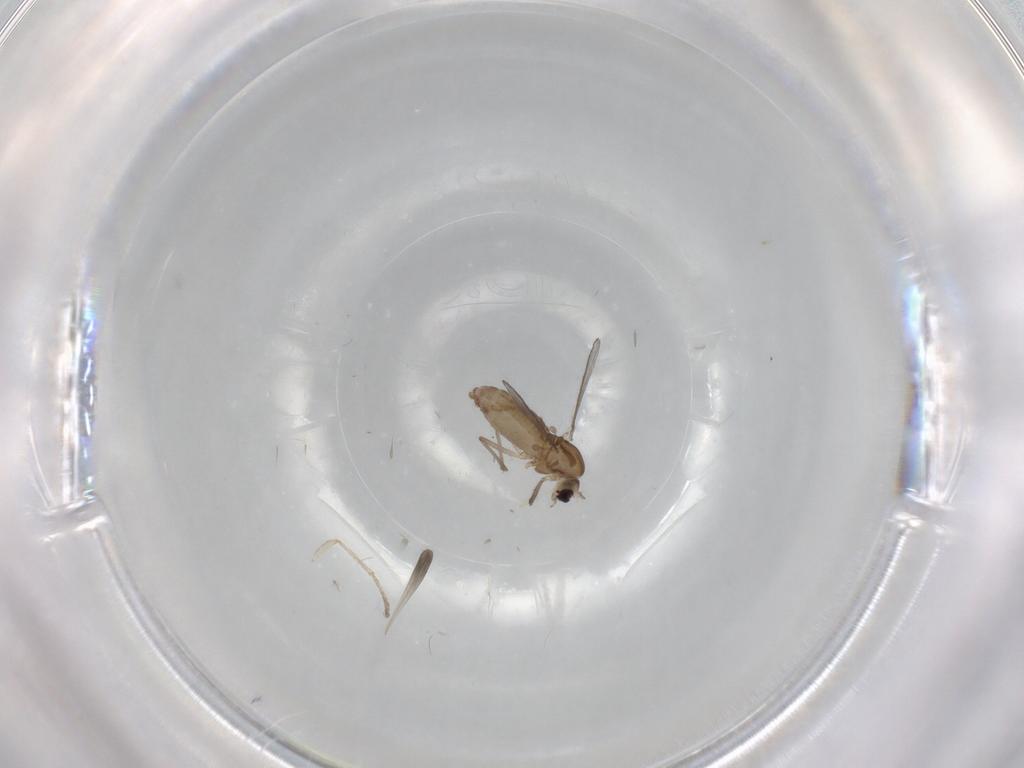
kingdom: Animalia
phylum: Arthropoda
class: Insecta
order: Diptera
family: Chironomidae
